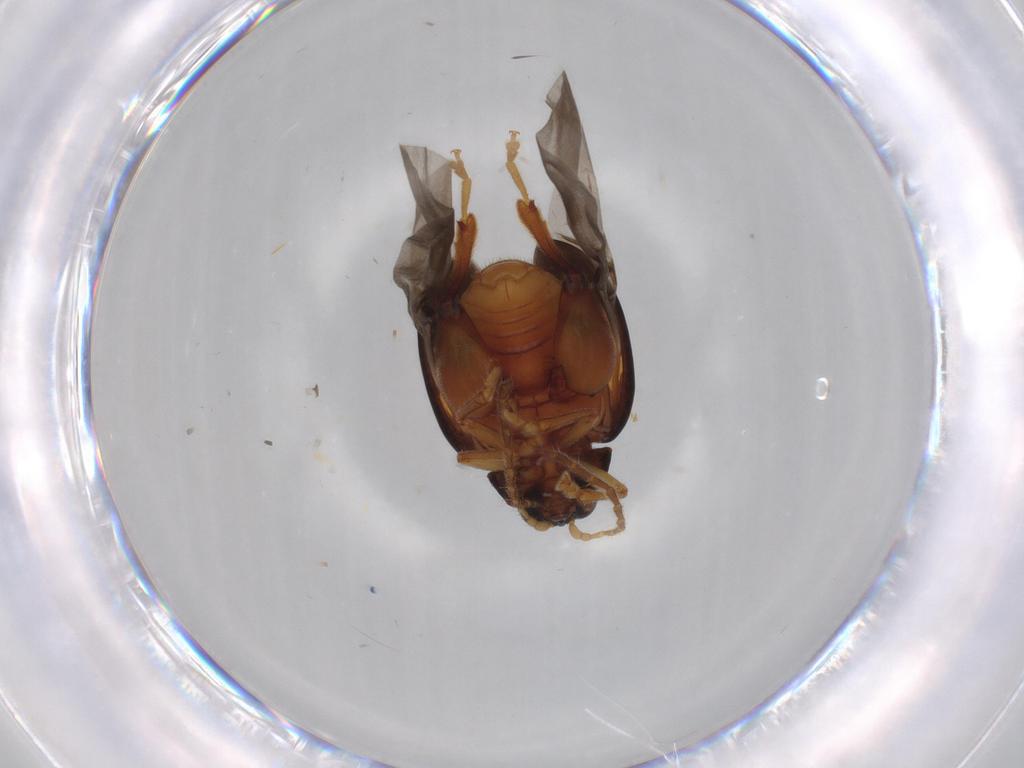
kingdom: Animalia
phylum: Arthropoda
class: Insecta
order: Coleoptera
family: Chrysomelidae
